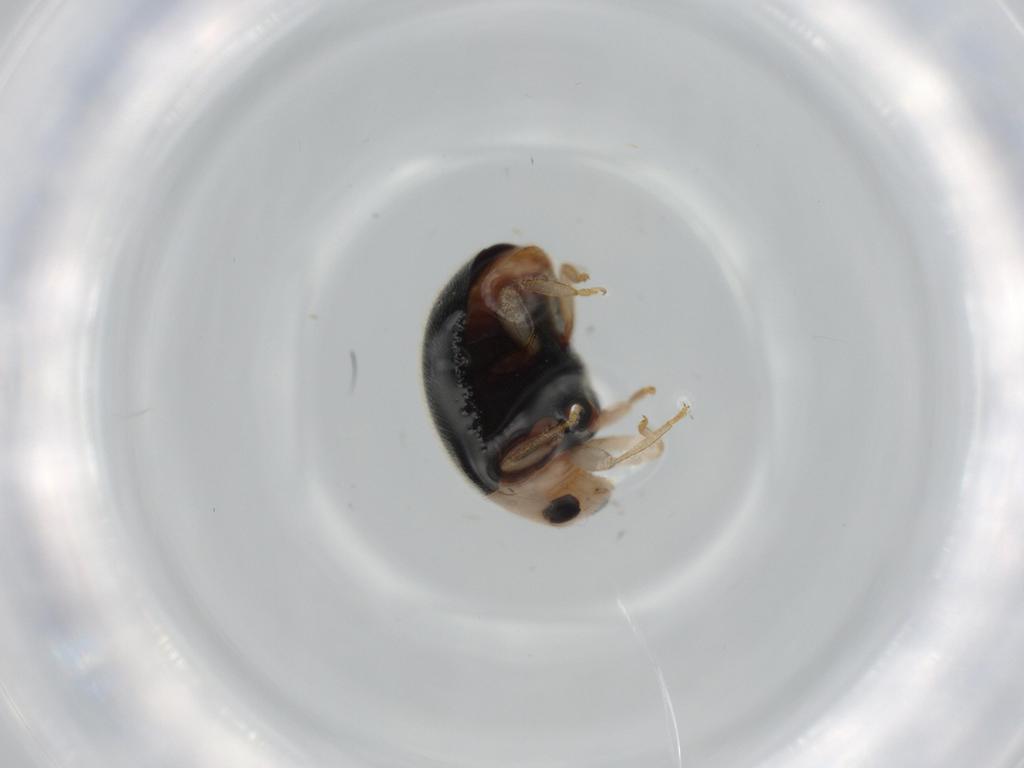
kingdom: Animalia
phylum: Arthropoda
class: Insecta
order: Coleoptera
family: Coccinellidae
